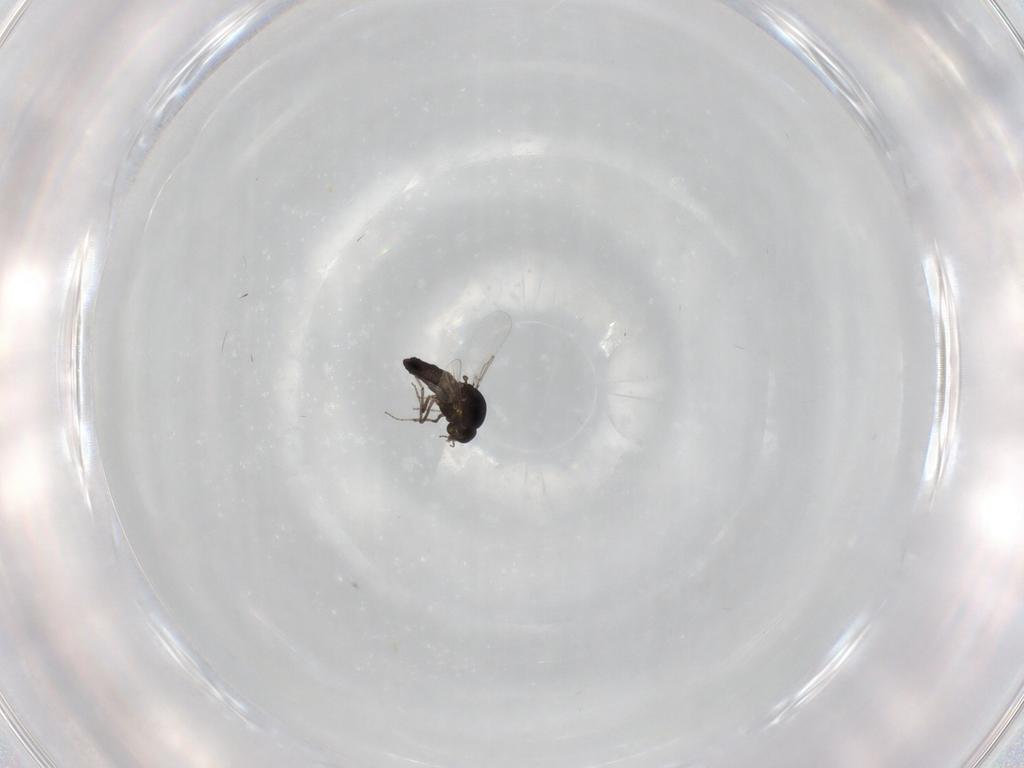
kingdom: Animalia
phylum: Arthropoda
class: Insecta
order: Diptera
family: Ceratopogonidae
